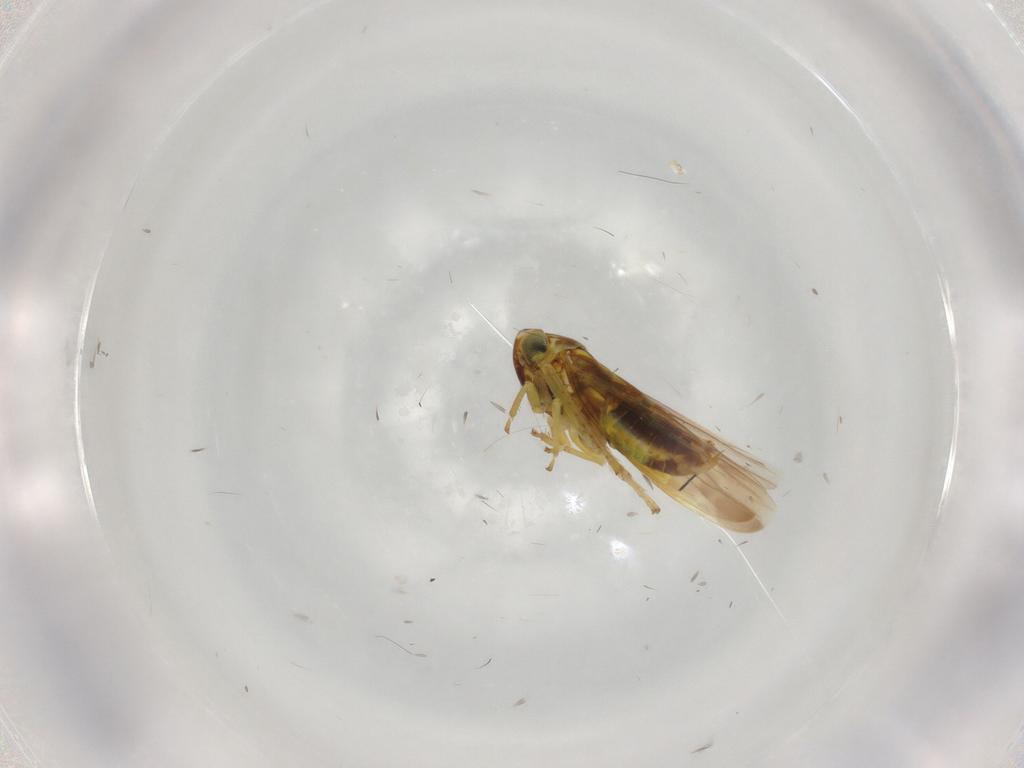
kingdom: Animalia
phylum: Arthropoda
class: Insecta
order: Hemiptera
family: Cicadellidae
